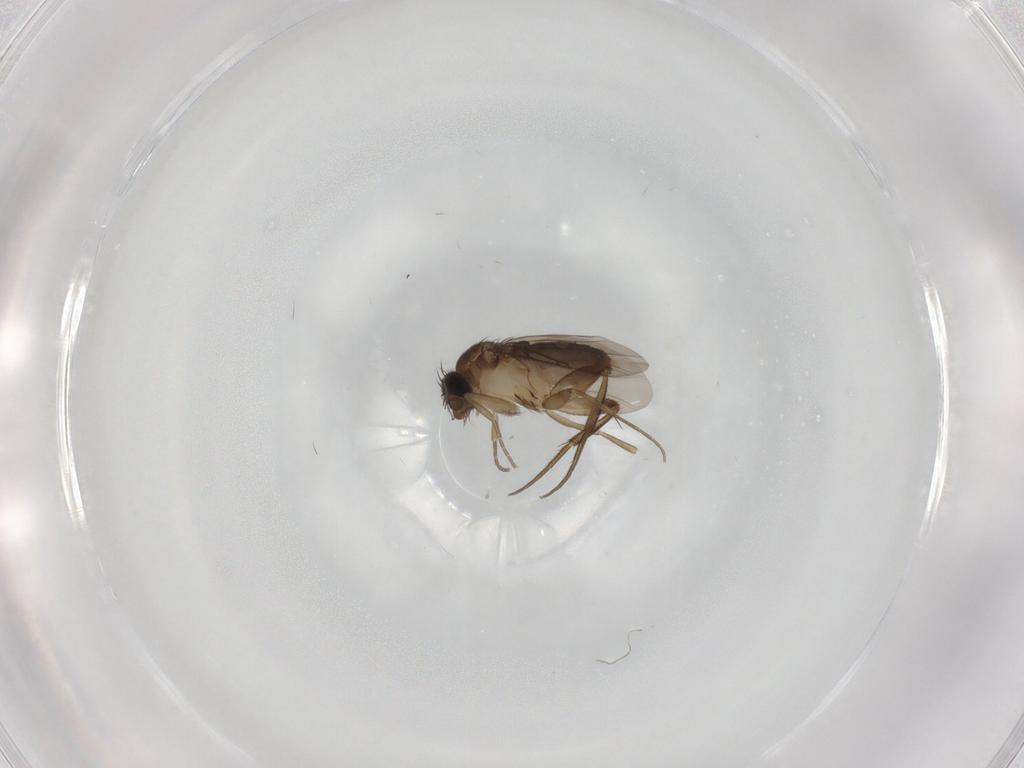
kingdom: Animalia
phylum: Arthropoda
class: Insecta
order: Diptera
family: Phoridae
